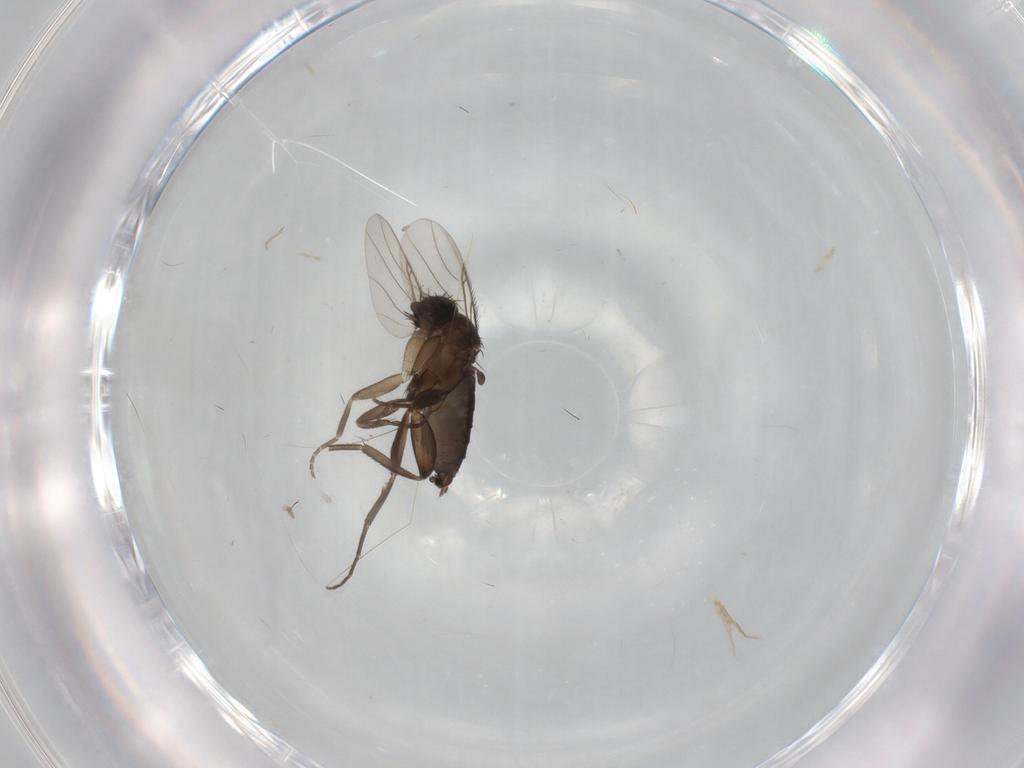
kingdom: Animalia
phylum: Arthropoda
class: Insecta
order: Diptera
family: Phoridae
